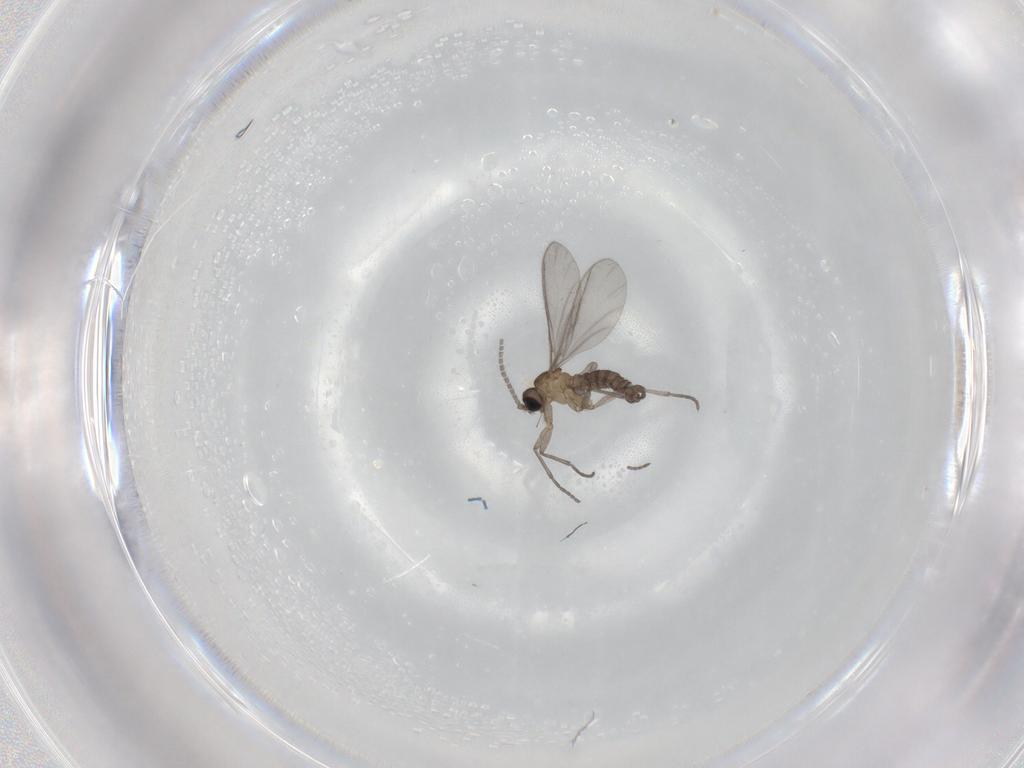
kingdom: Animalia
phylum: Arthropoda
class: Insecta
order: Diptera
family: Sciaridae
